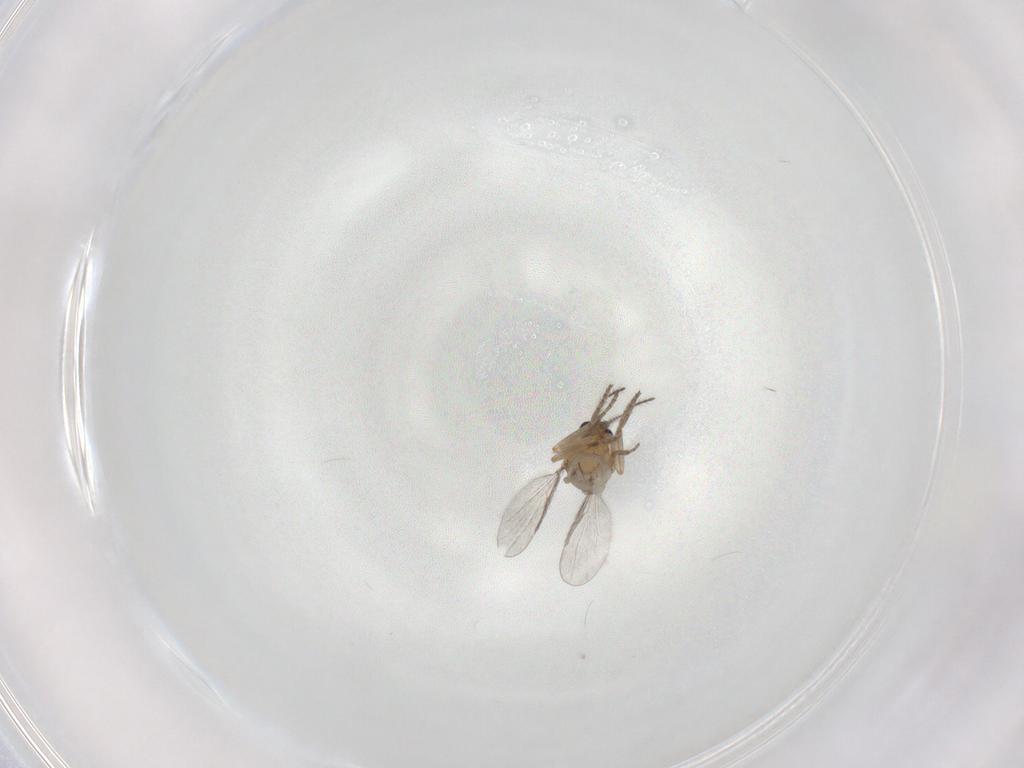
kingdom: Animalia
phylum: Arthropoda
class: Insecta
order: Diptera
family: Ceratopogonidae
